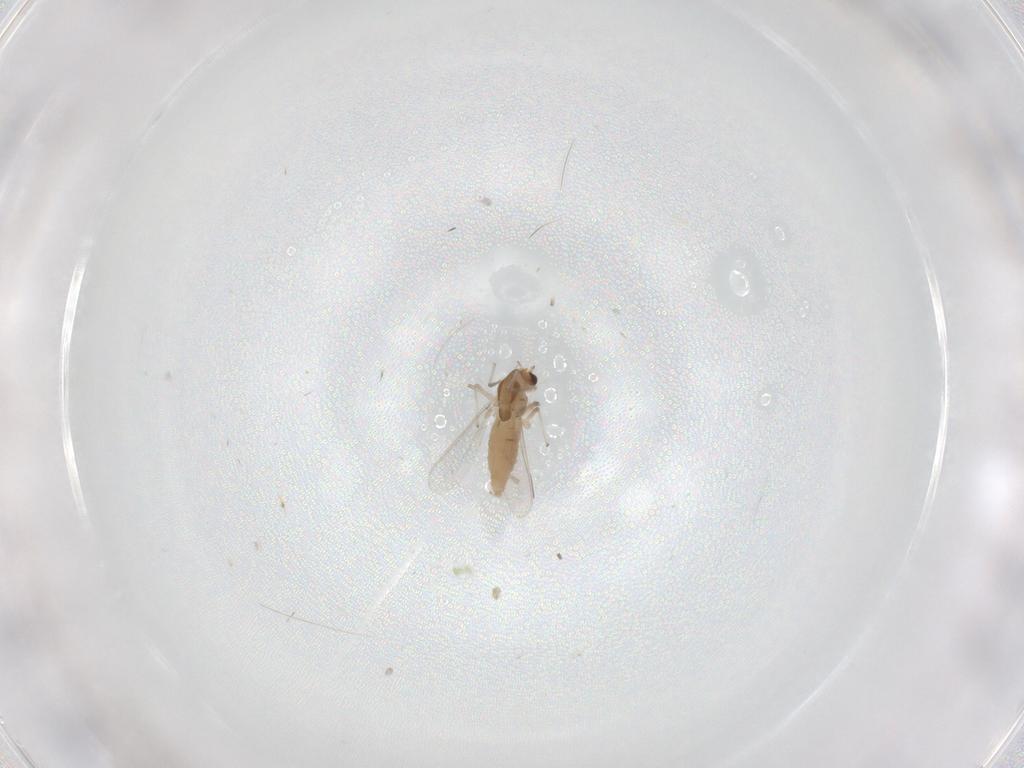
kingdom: Animalia
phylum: Arthropoda
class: Insecta
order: Diptera
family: Chironomidae
